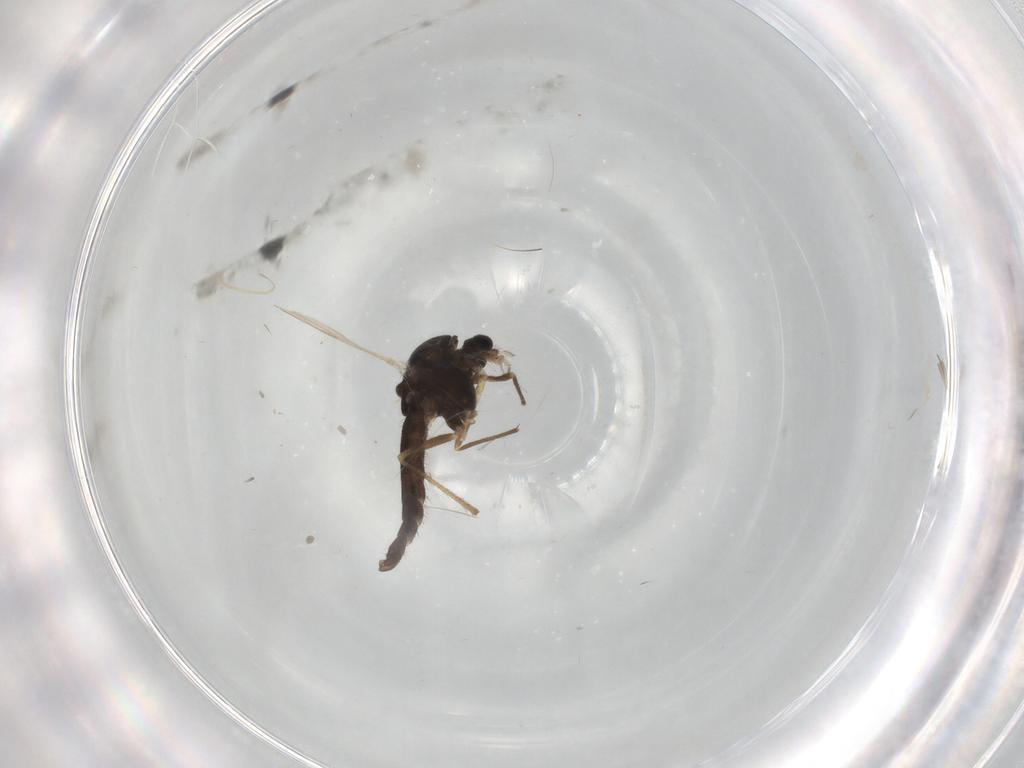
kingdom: Animalia
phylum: Arthropoda
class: Insecta
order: Diptera
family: Chironomidae
